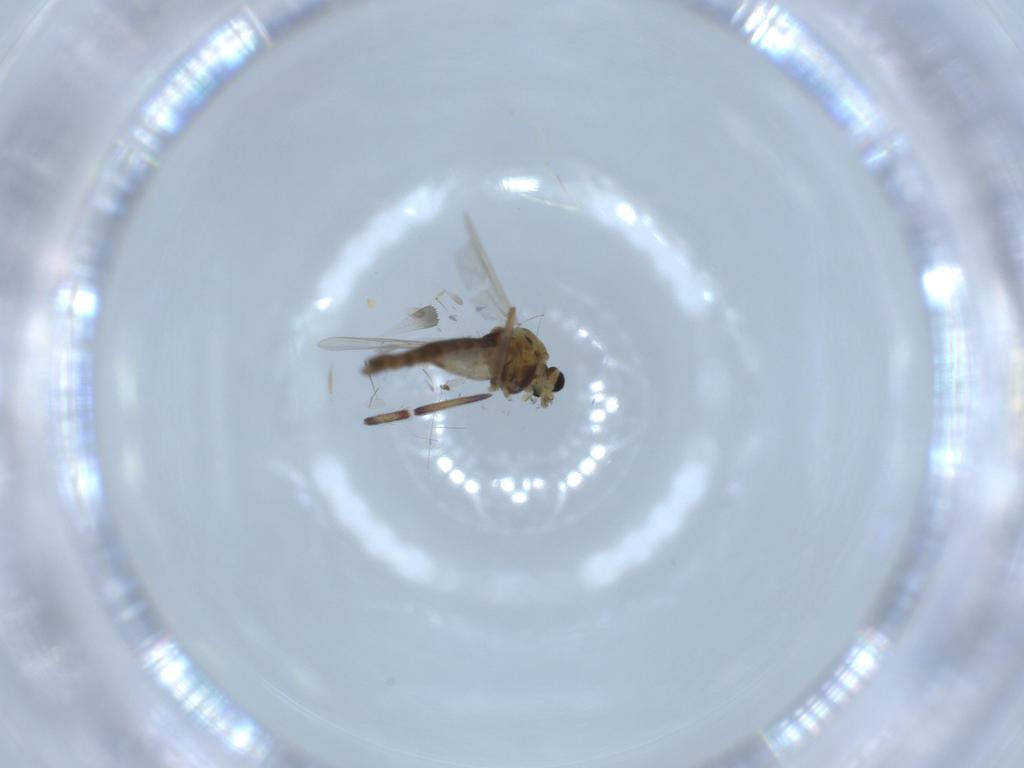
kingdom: Animalia
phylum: Arthropoda
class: Insecta
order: Diptera
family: Chironomidae
